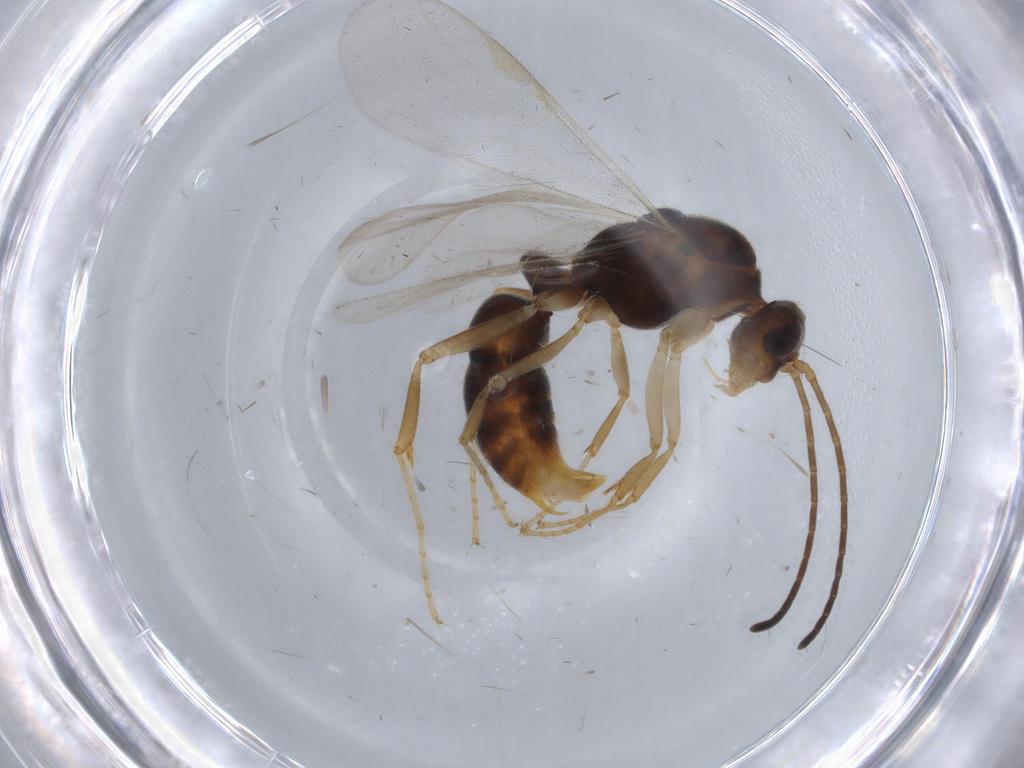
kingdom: Animalia
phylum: Arthropoda
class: Insecta
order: Hymenoptera
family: Formicidae
